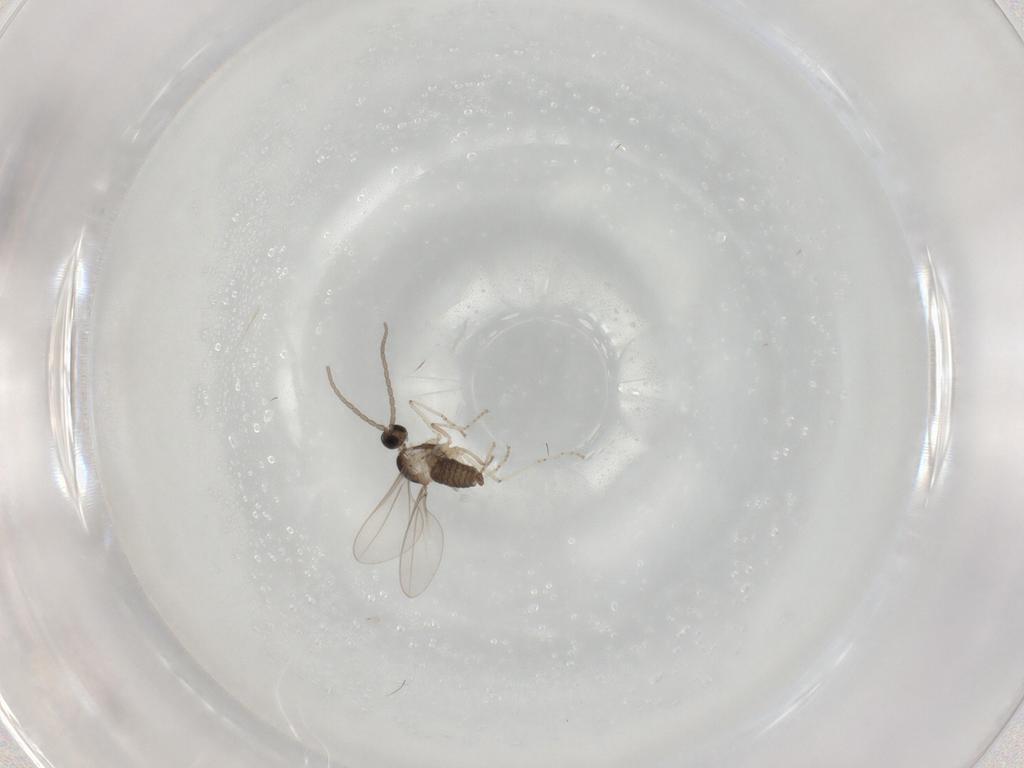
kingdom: Animalia
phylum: Arthropoda
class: Insecta
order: Diptera
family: Cecidomyiidae
